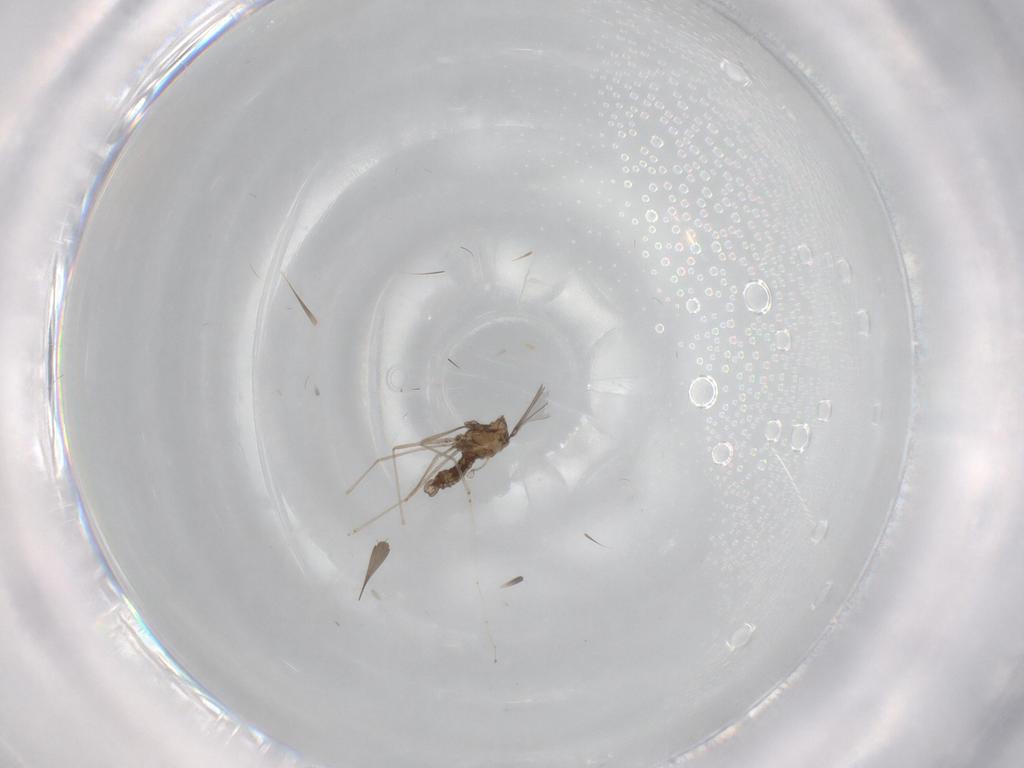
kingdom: Animalia
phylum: Arthropoda
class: Insecta
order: Diptera
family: Cecidomyiidae
